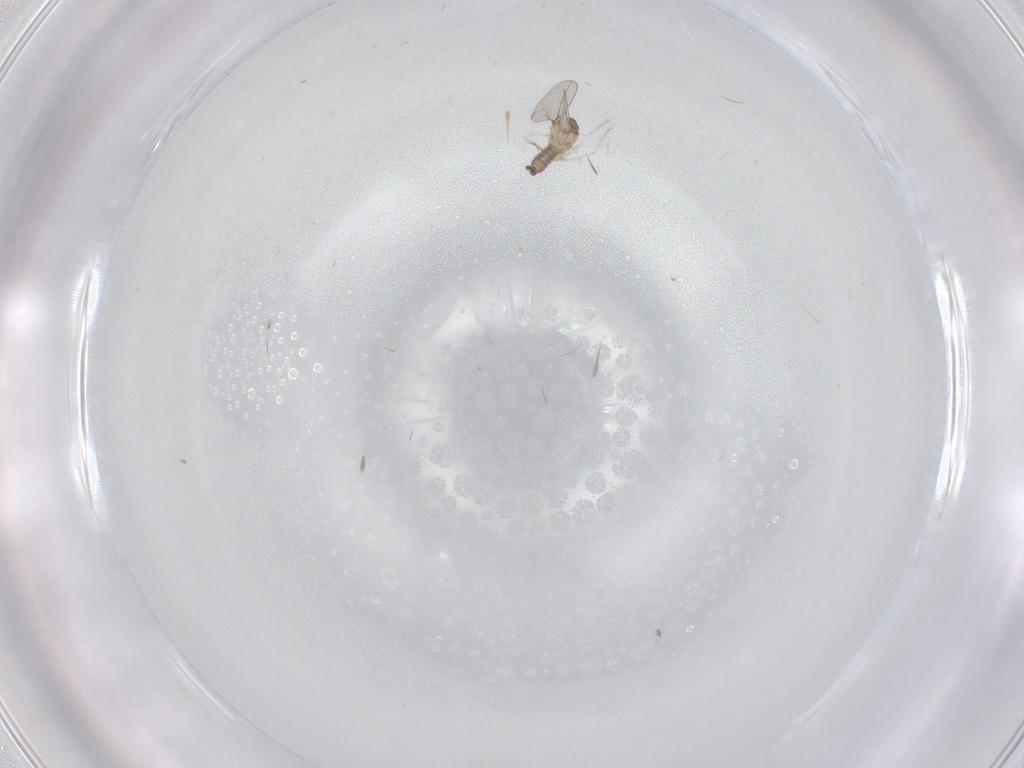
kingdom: Animalia
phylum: Arthropoda
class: Insecta
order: Diptera
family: Cecidomyiidae
